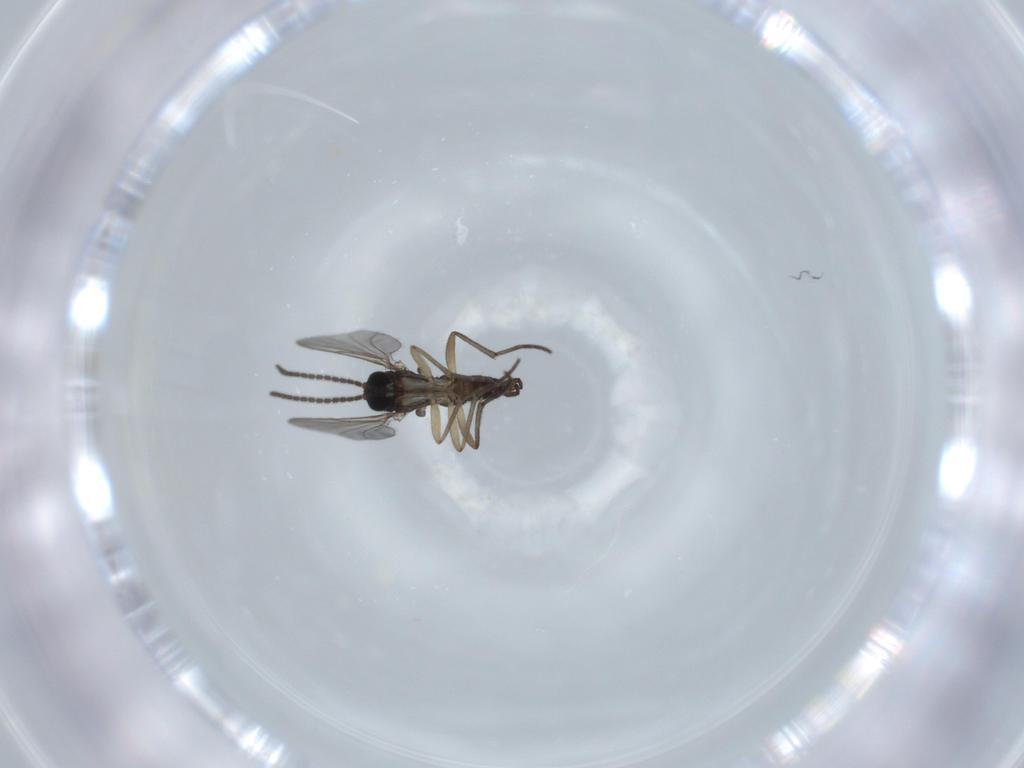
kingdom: Animalia
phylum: Arthropoda
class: Insecta
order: Diptera
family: Sciaridae
